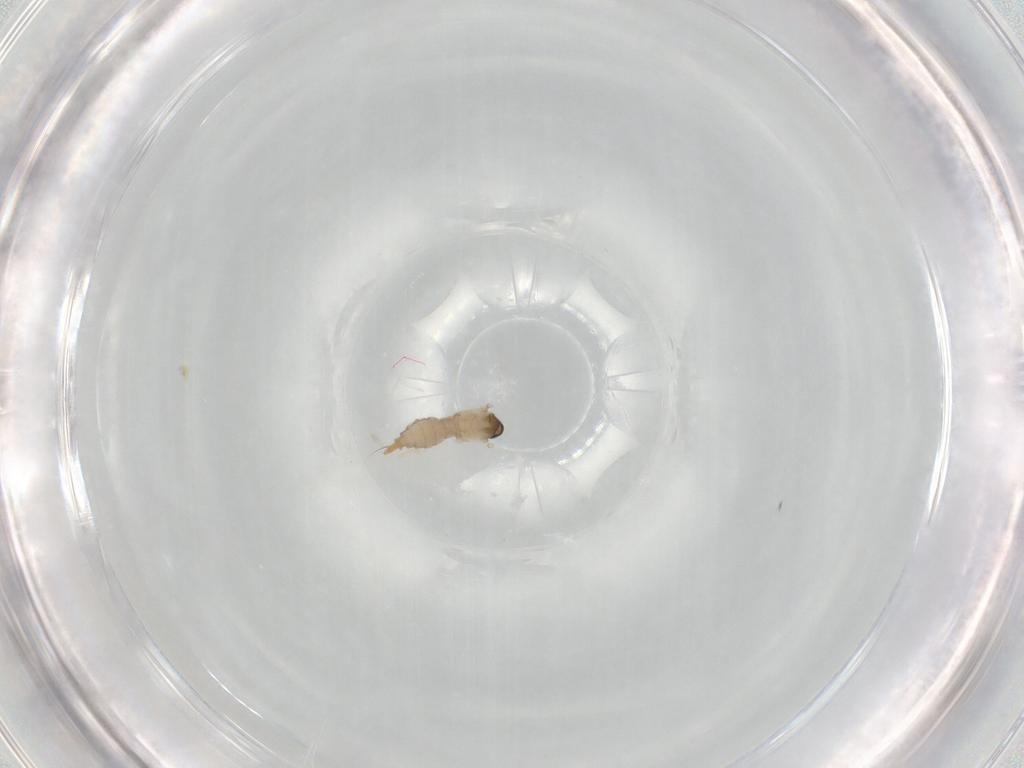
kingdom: Animalia
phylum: Arthropoda
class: Insecta
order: Diptera
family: Cecidomyiidae
